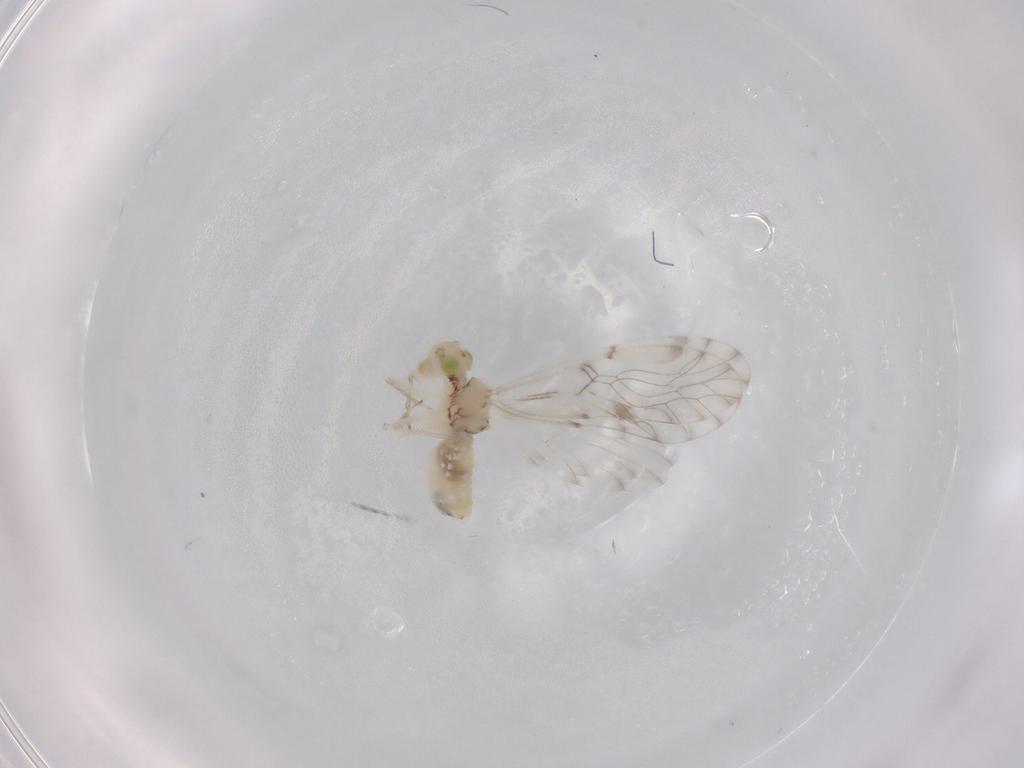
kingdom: Animalia
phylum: Arthropoda
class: Insecta
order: Psocodea
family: Trichopsocidae
